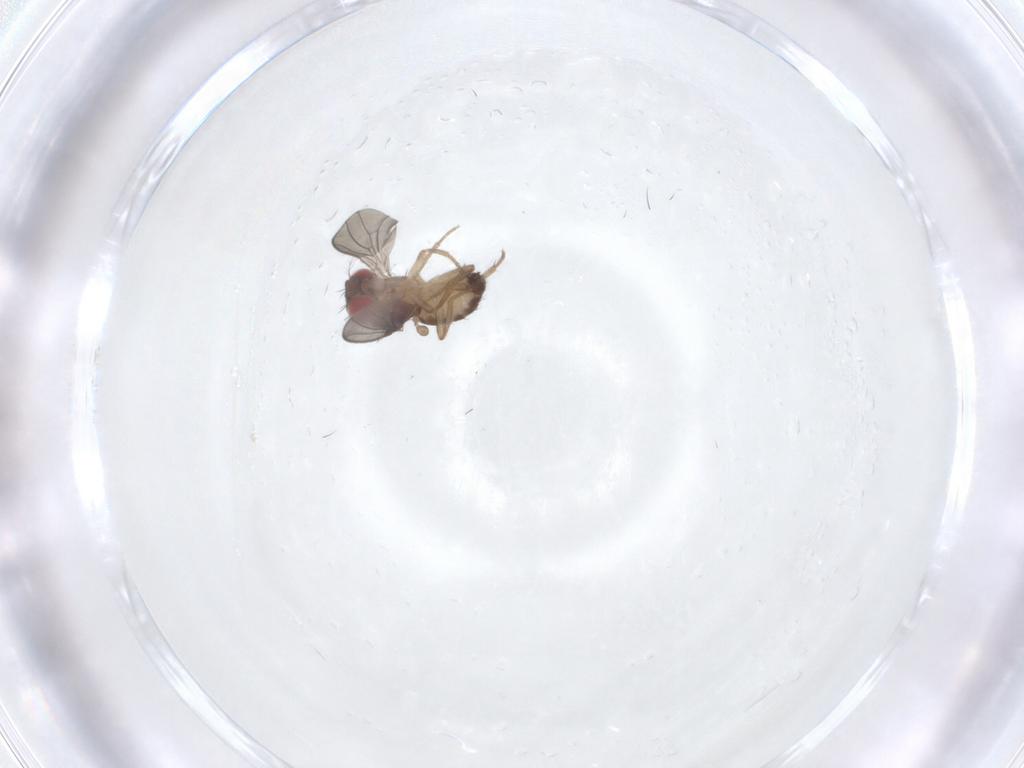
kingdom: Animalia
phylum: Arthropoda
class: Insecta
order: Diptera
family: Drosophilidae
